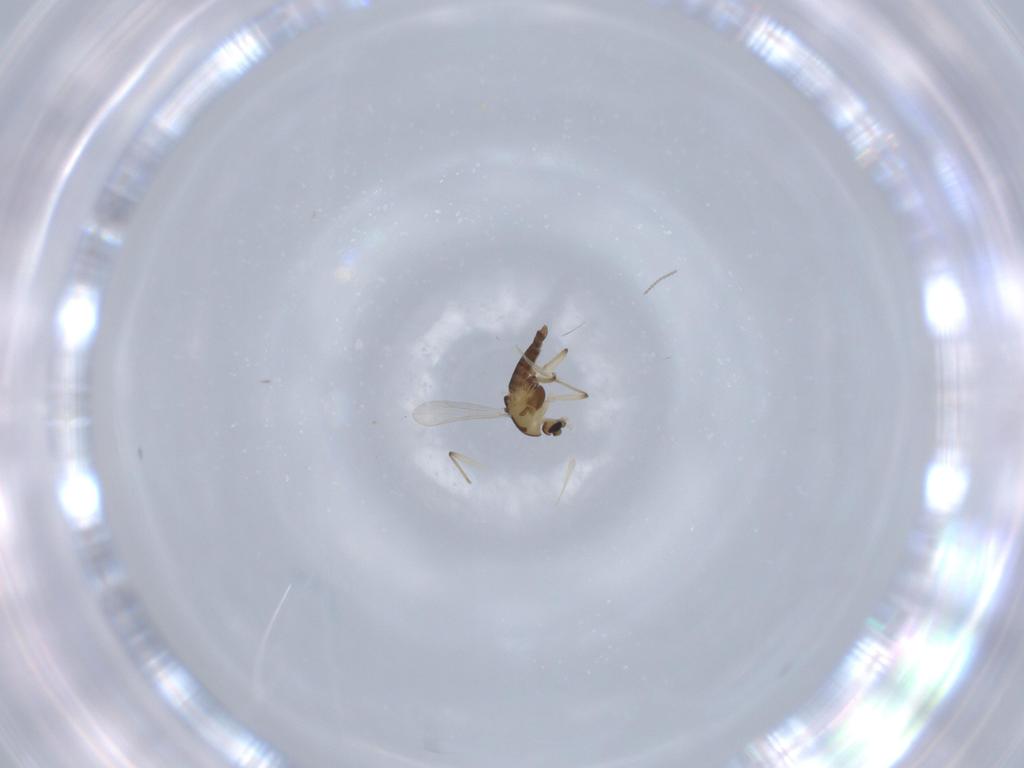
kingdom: Animalia
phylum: Arthropoda
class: Insecta
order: Diptera
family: Chironomidae
